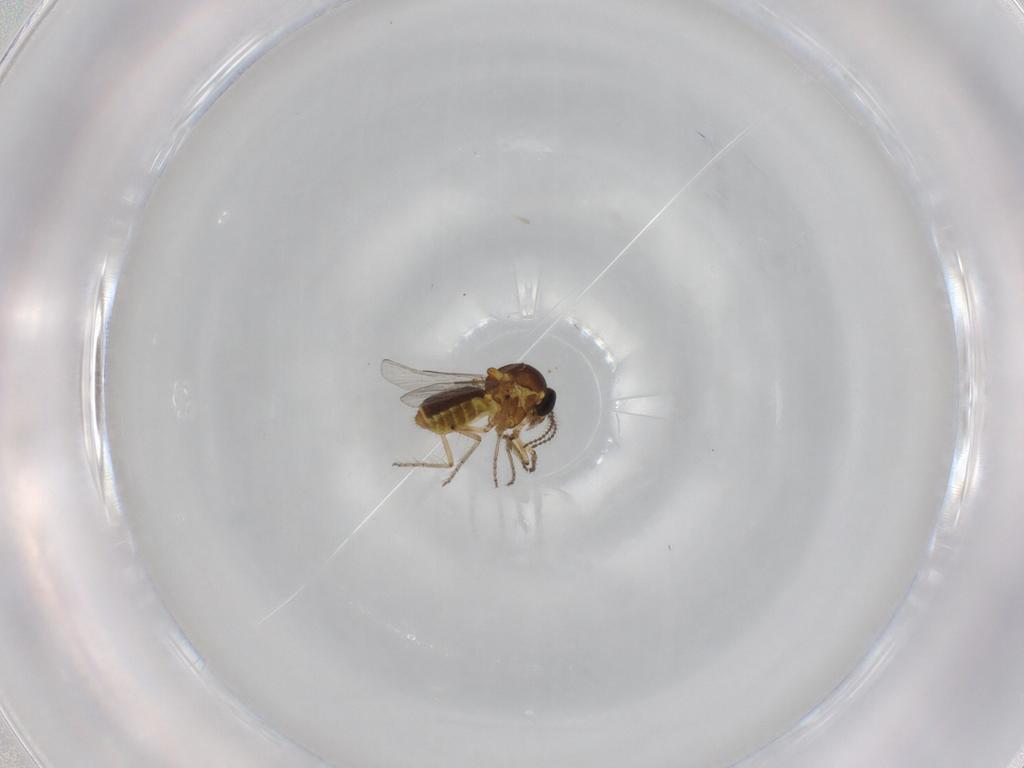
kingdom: Animalia
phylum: Arthropoda
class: Insecta
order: Diptera
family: Ceratopogonidae
